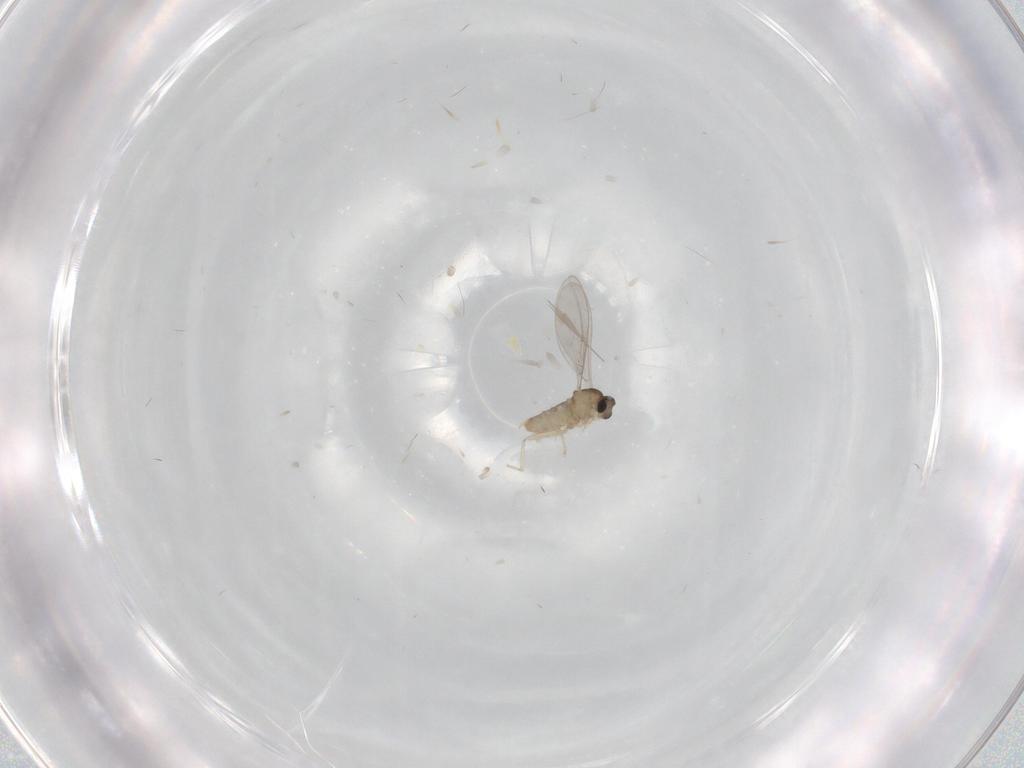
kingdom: Animalia
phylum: Arthropoda
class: Insecta
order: Diptera
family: Cecidomyiidae
